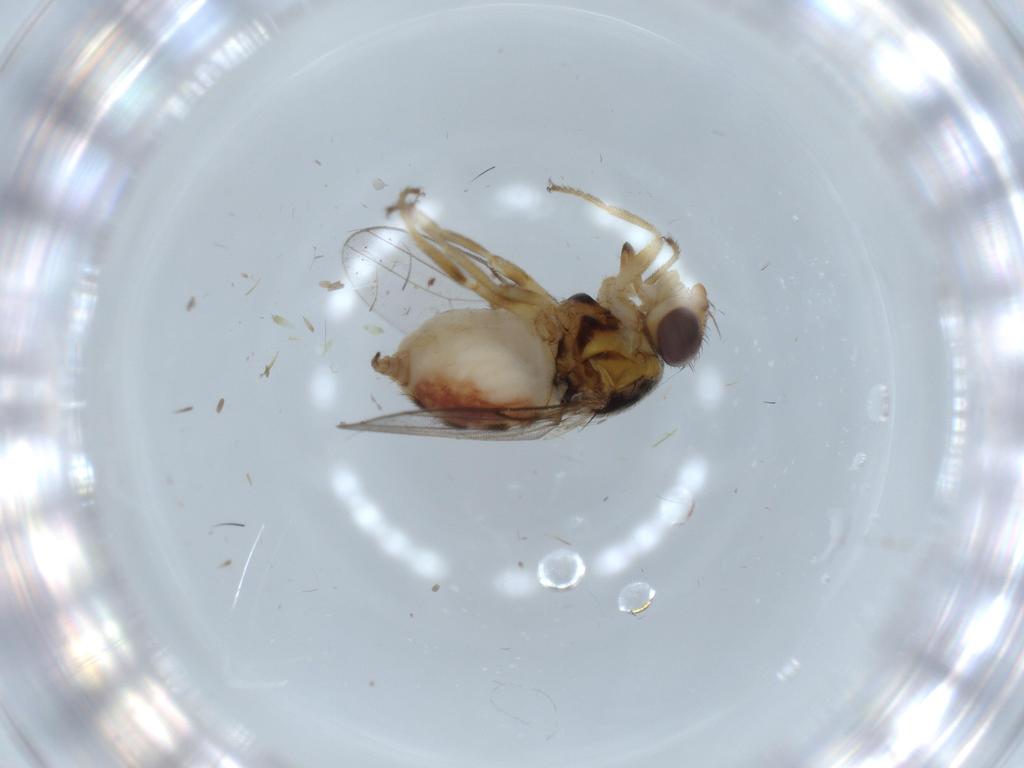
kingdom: Animalia
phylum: Arthropoda
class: Insecta
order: Diptera
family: Chloropidae
